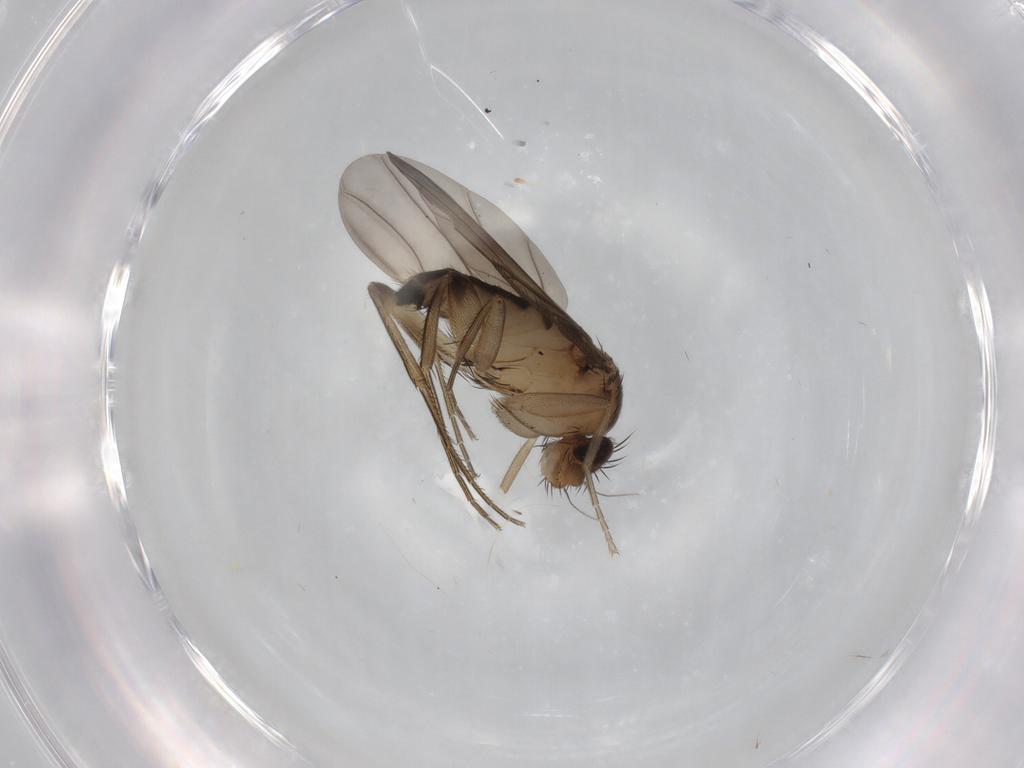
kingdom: Animalia
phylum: Arthropoda
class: Insecta
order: Diptera
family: Phoridae
